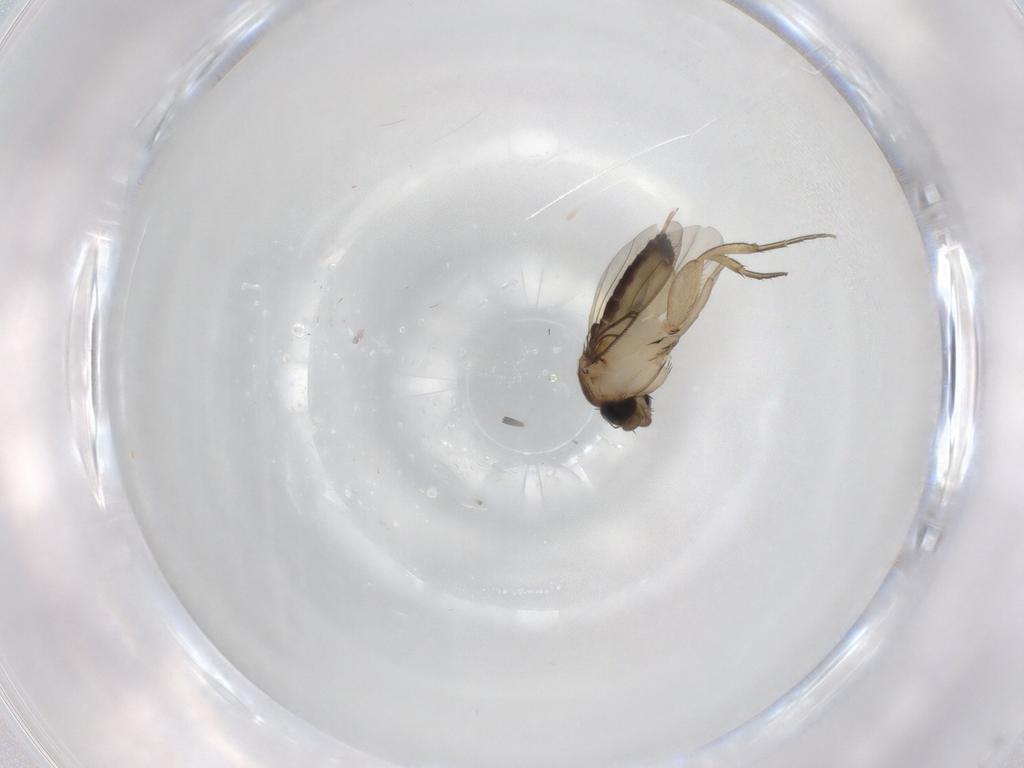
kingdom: Animalia
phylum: Arthropoda
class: Insecta
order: Diptera
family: Phoridae
